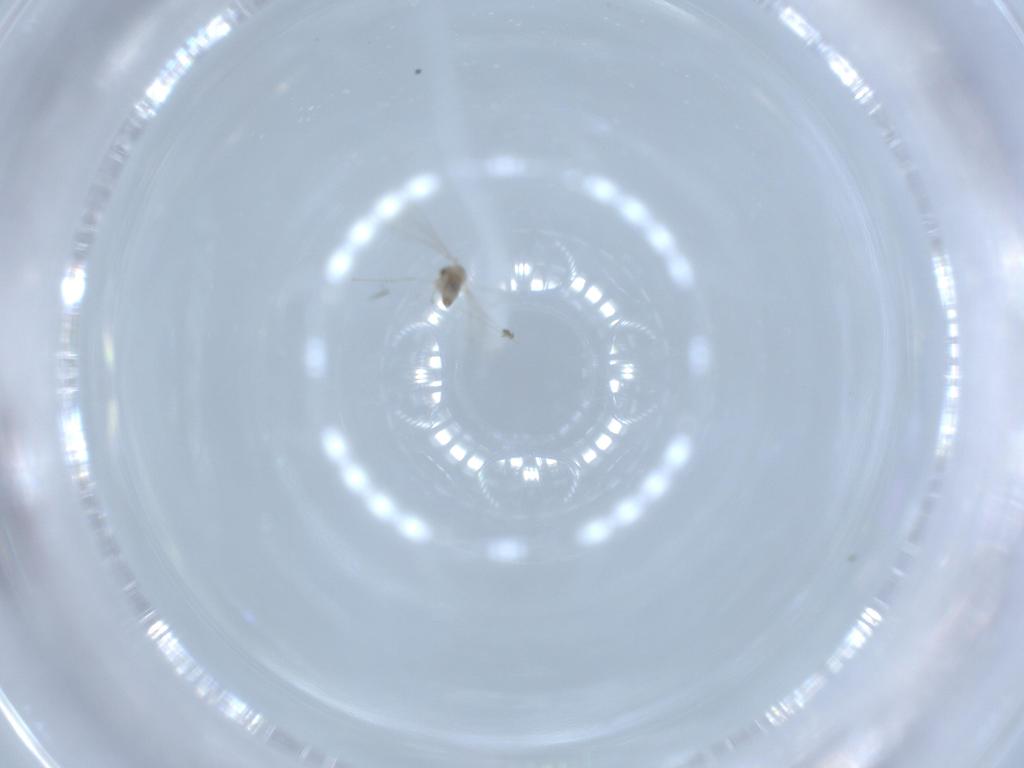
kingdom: Animalia
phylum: Arthropoda
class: Insecta
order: Diptera
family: Cecidomyiidae
